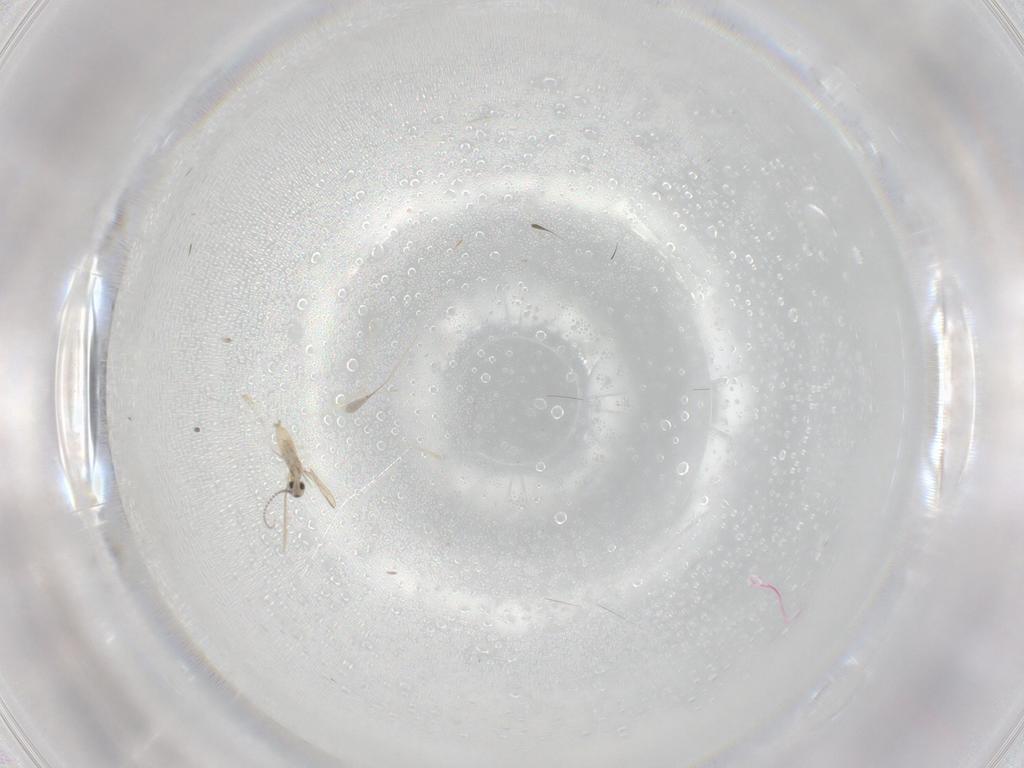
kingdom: Animalia
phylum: Arthropoda
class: Insecta
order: Diptera
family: Cecidomyiidae
